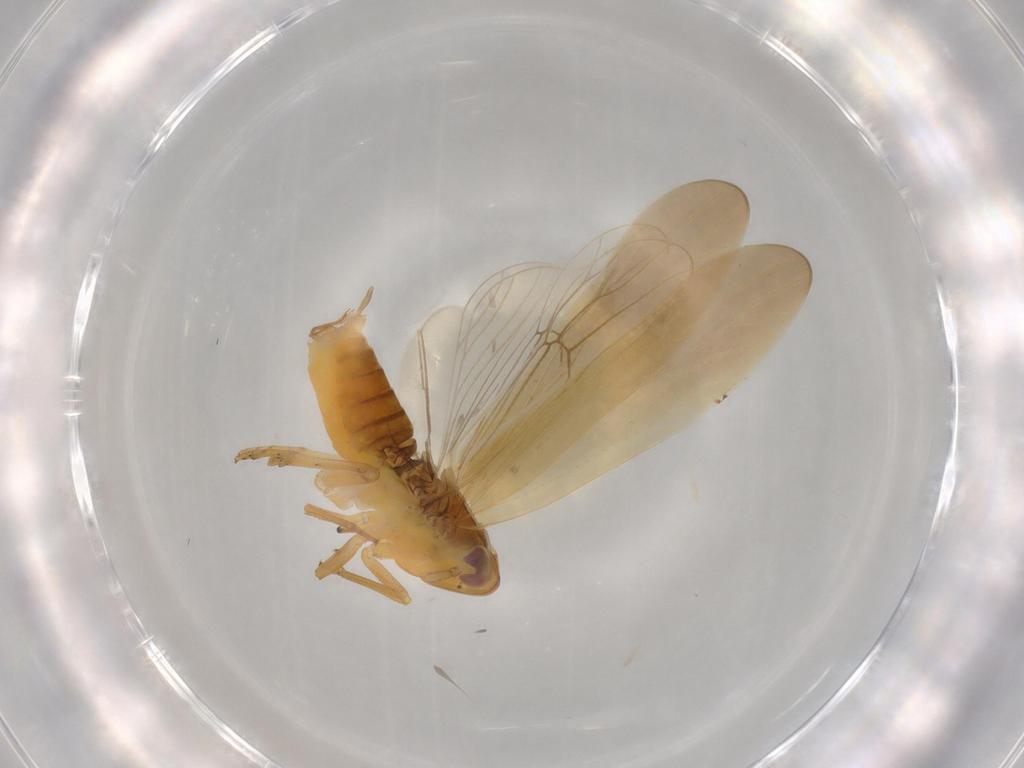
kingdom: Animalia
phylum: Arthropoda
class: Insecta
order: Hemiptera
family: Delphacidae
